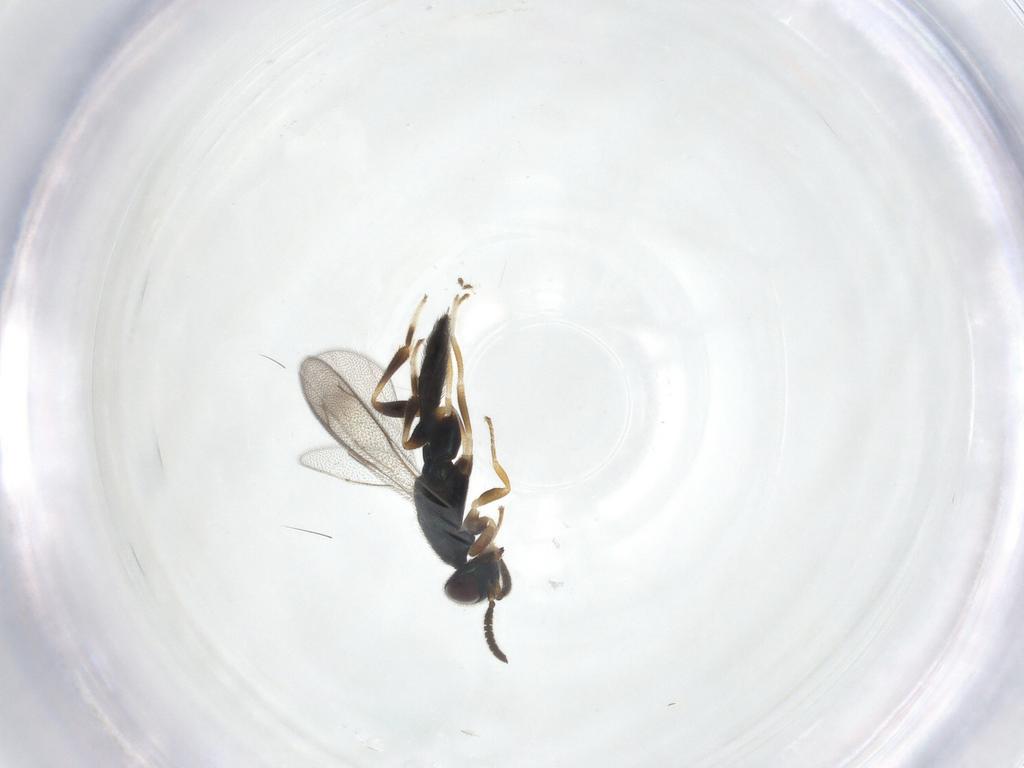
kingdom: Animalia
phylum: Arthropoda
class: Insecta
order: Hymenoptera
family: Cleonyminae
